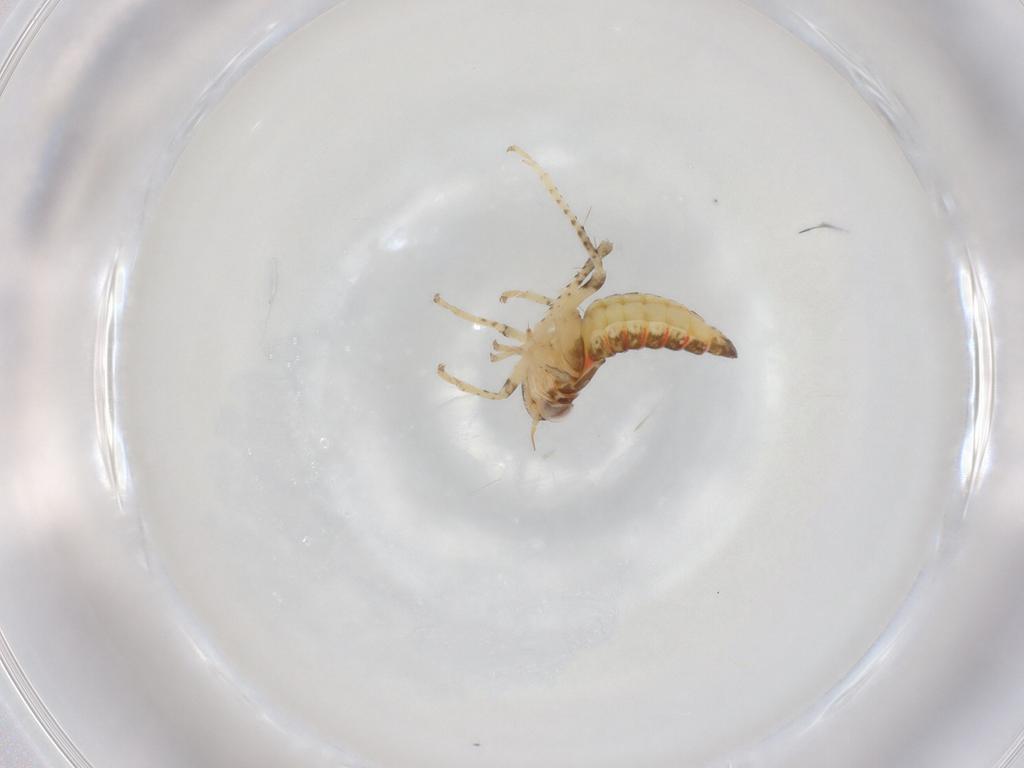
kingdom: Animalia
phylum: Arthropoda
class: Insecta
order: Hemiptera
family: Cicadellidae
